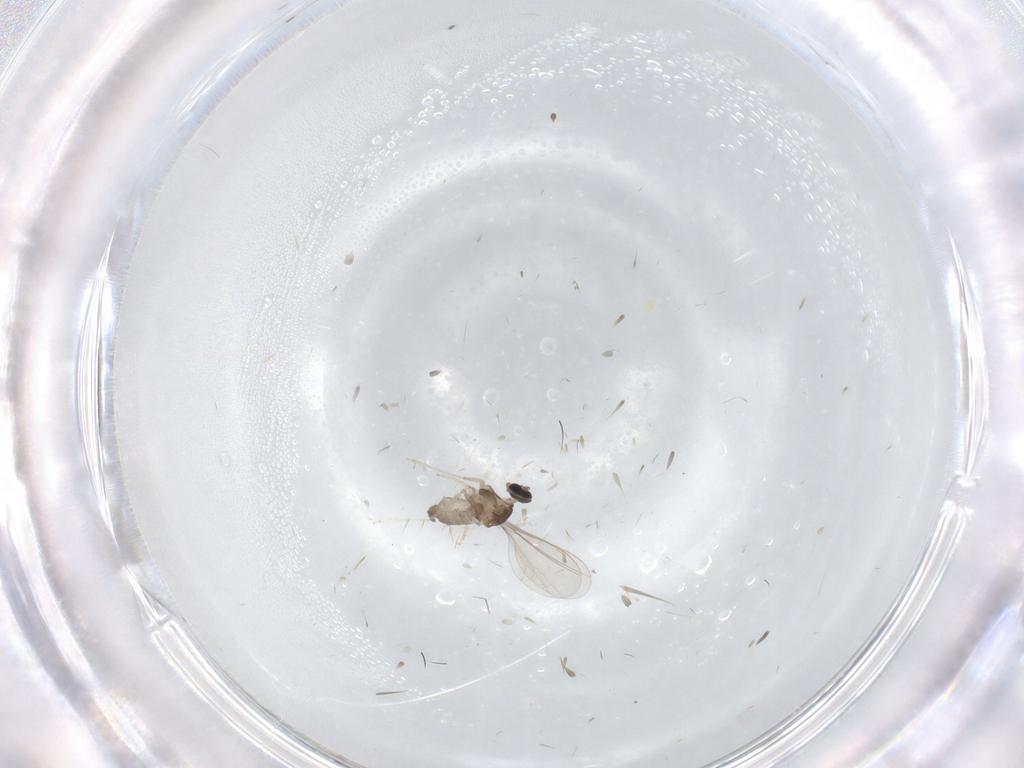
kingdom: Animalia
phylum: Arthropoda
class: Insecta
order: Diptera
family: Cecidomyiidae
